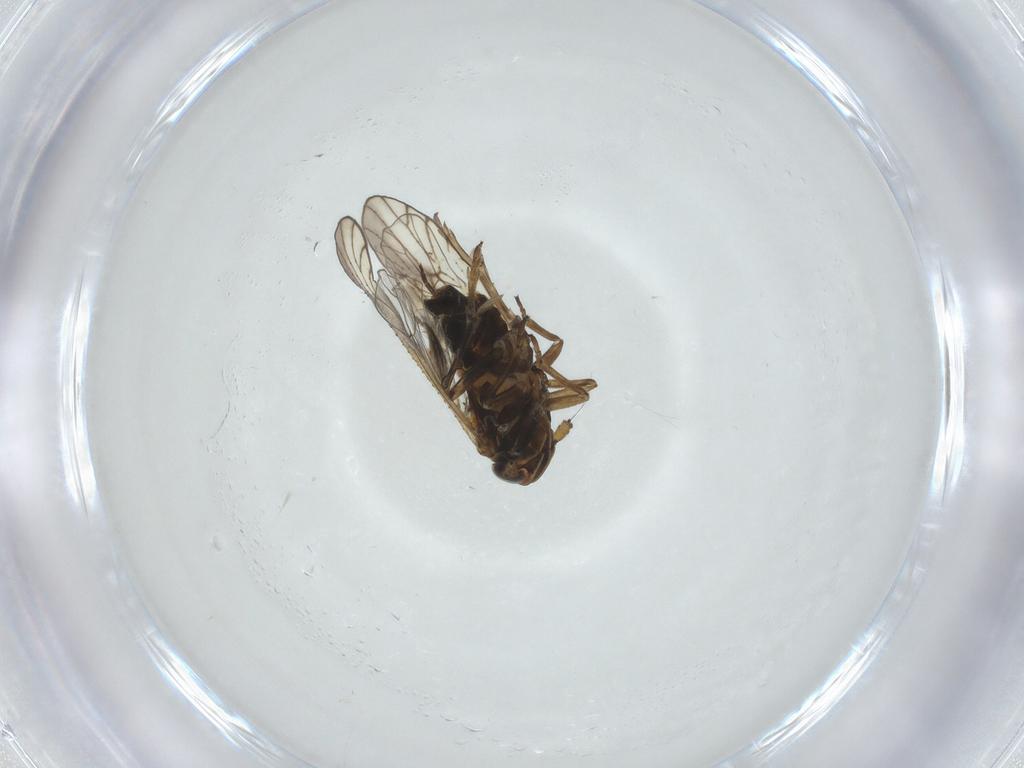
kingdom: Animalia
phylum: Arthropoda
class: Insecta
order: Hemiptera
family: Delphacidae
